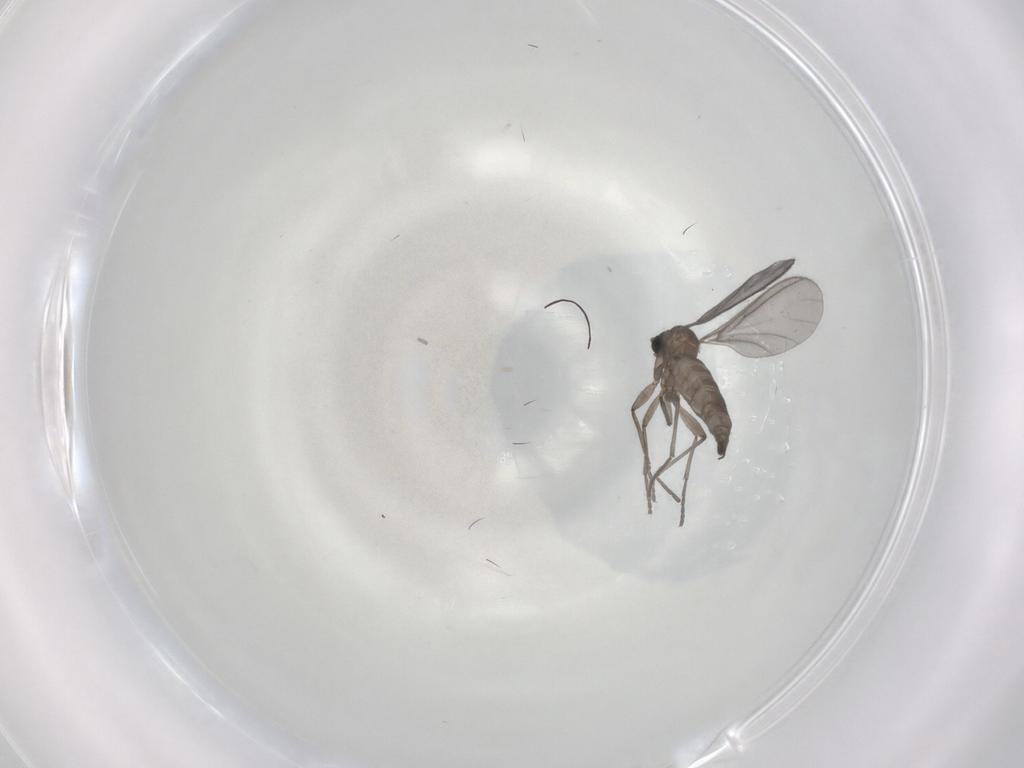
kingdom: Animalia
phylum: Arthropoda
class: Insecta
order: Diptera
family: Sciaridae
